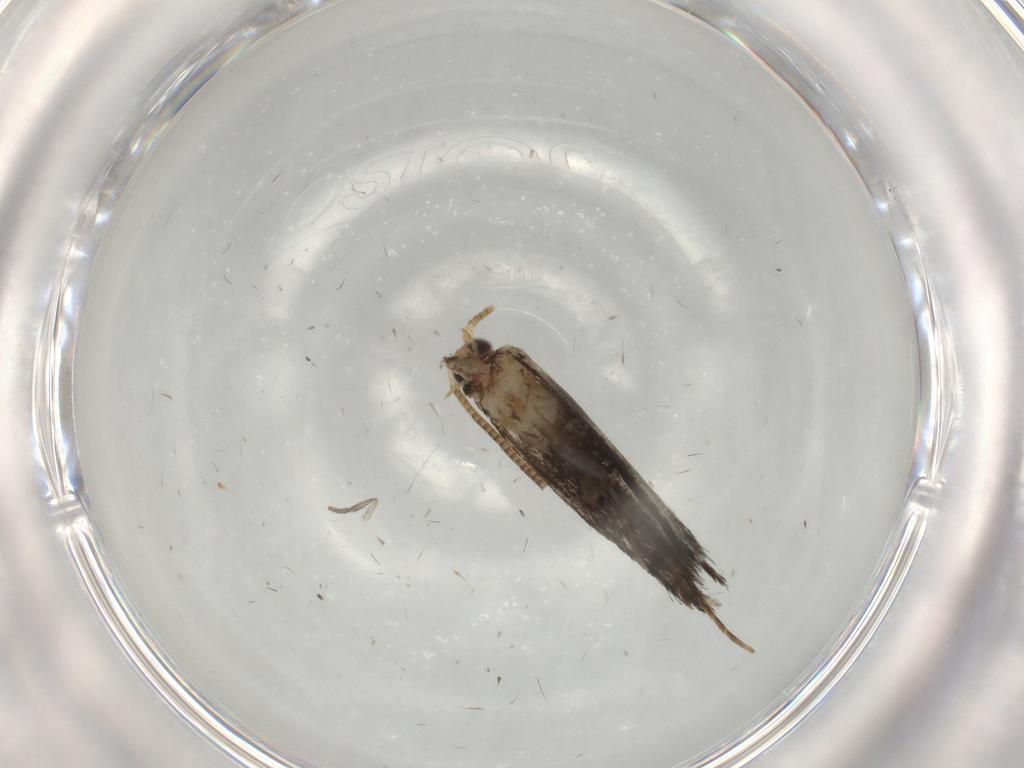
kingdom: Animalia
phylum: Arthropoda
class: Insecta
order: Lepidoptera
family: Tineidae
